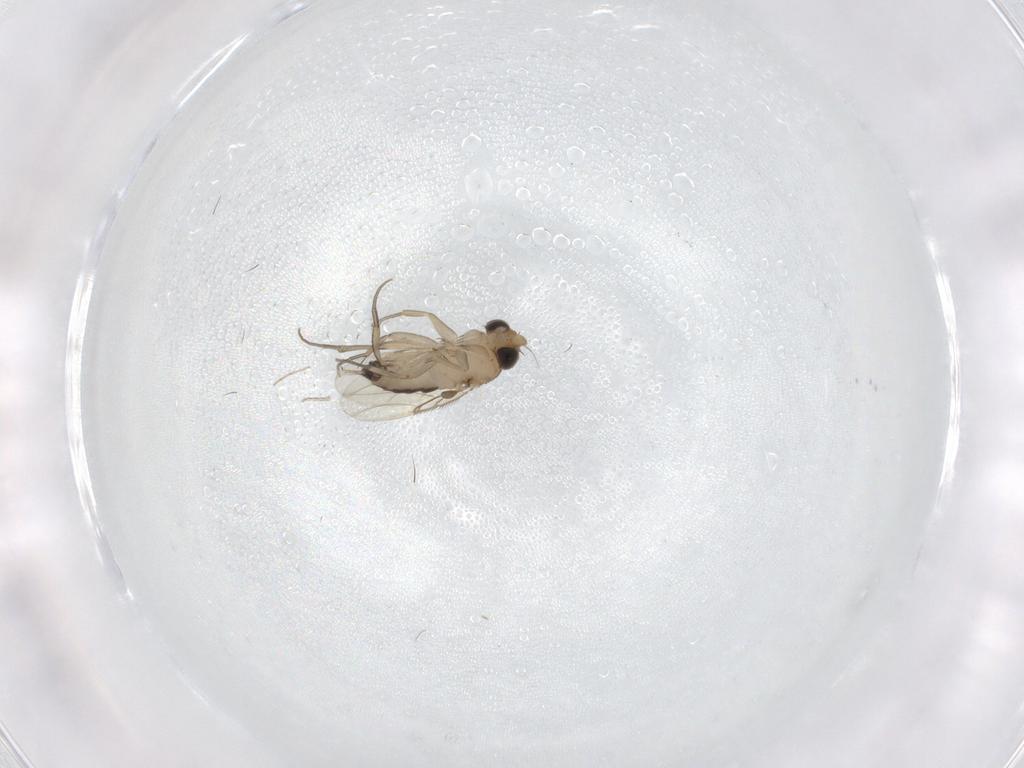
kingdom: Animalia
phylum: Arthropoda
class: Insecta
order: Diptera
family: Phoridae
